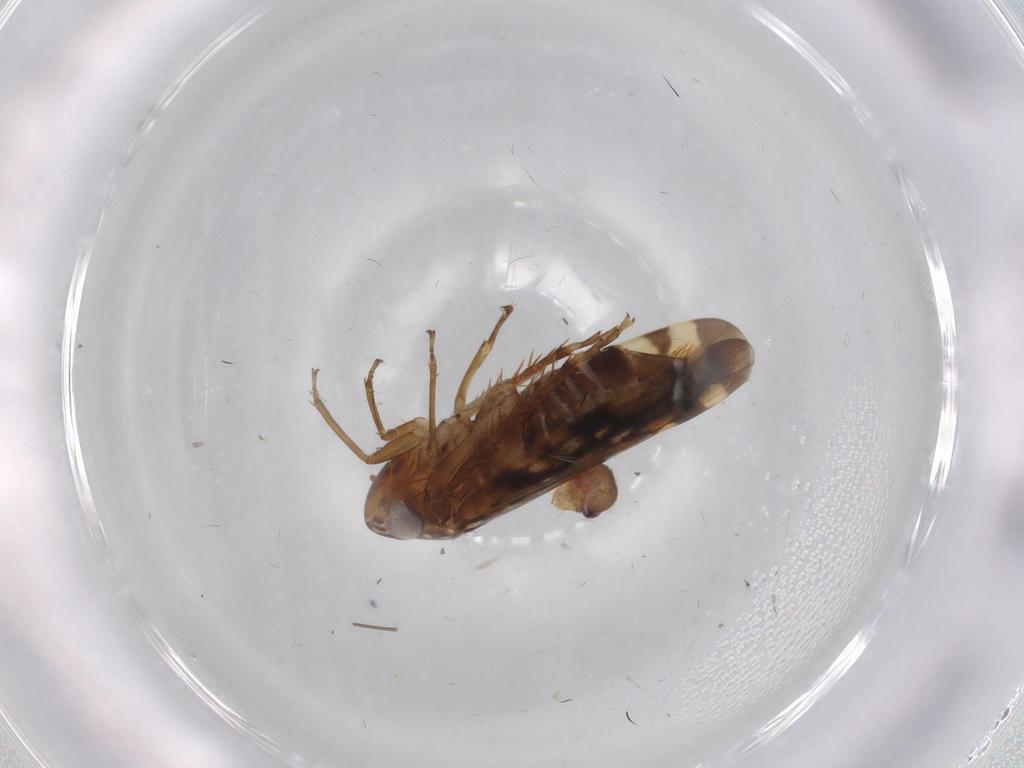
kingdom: Animalia
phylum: Arthropoda
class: Insecta
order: Hemiptera
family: Cicadellidae
